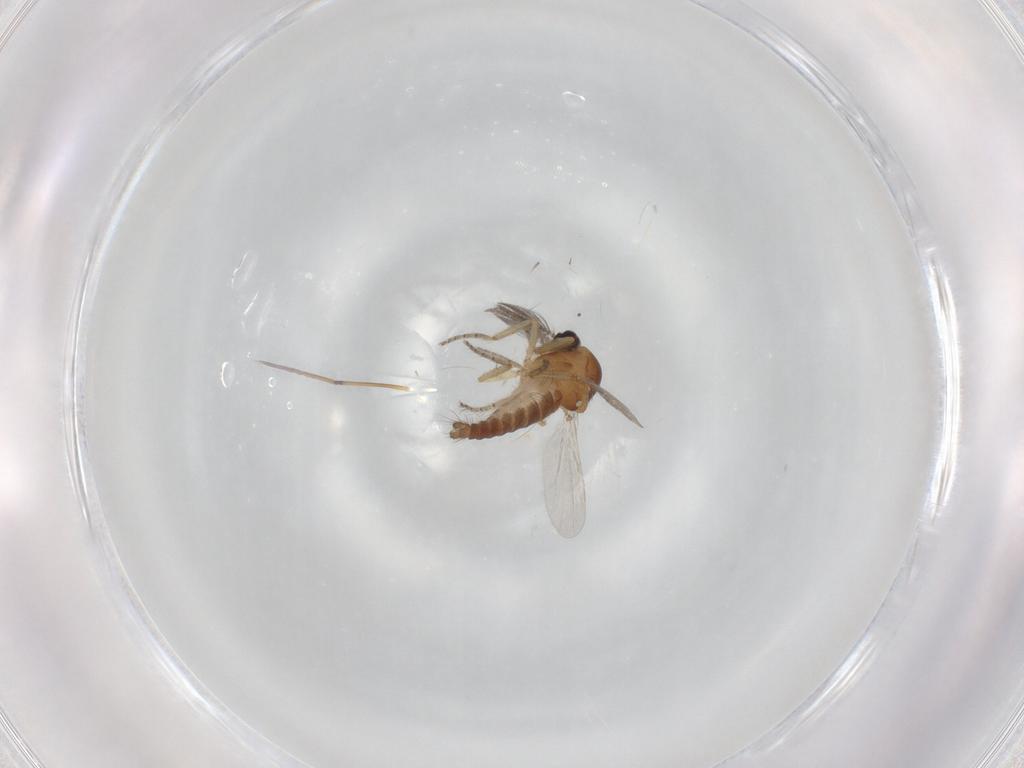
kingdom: Animalia
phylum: Arthropoda
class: Insecta
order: Diptera
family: Ceratopogonidae
